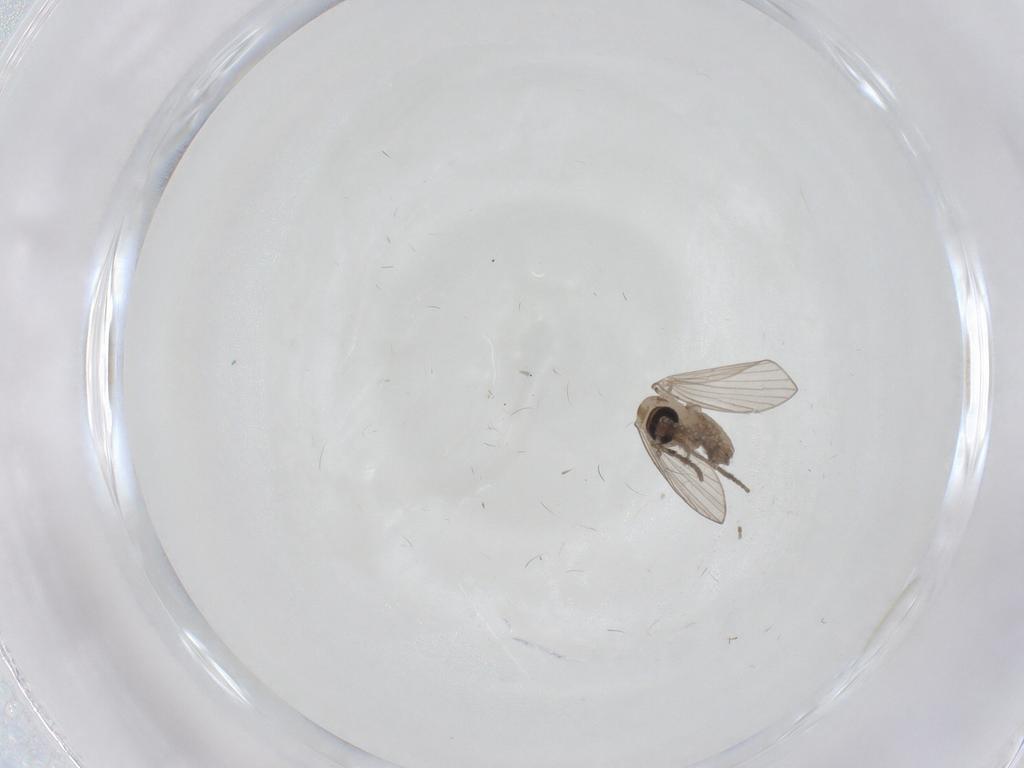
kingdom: Animalia
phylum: Arthropoda
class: Insecta
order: Diptera
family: Psychodidae
